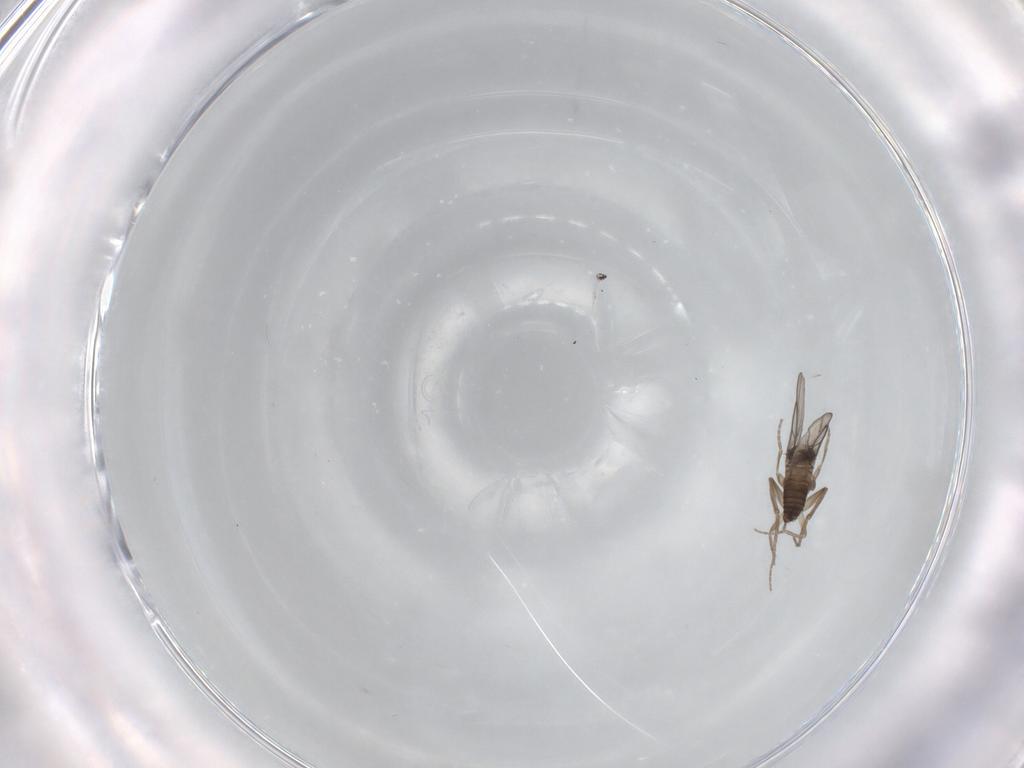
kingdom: Animalia
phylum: Arthropoda
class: Insecta
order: Diptera
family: Phoridae
